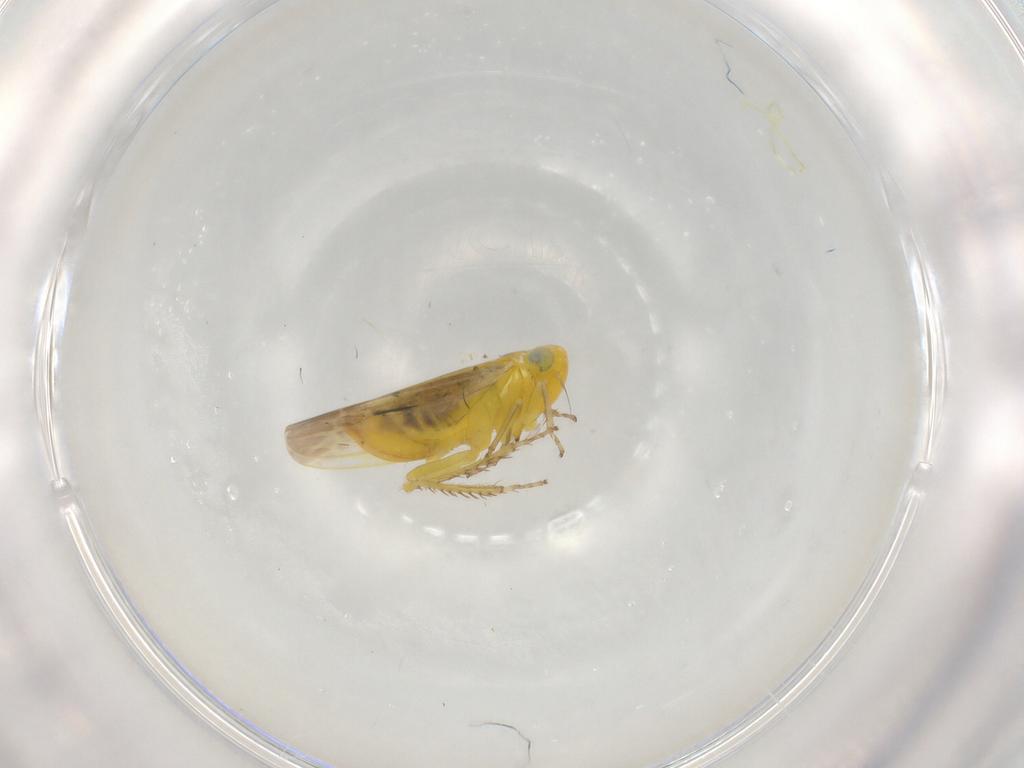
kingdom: Animalia
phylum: Arthropoda
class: Insecta
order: Hemiptera
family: Cicadellidae
